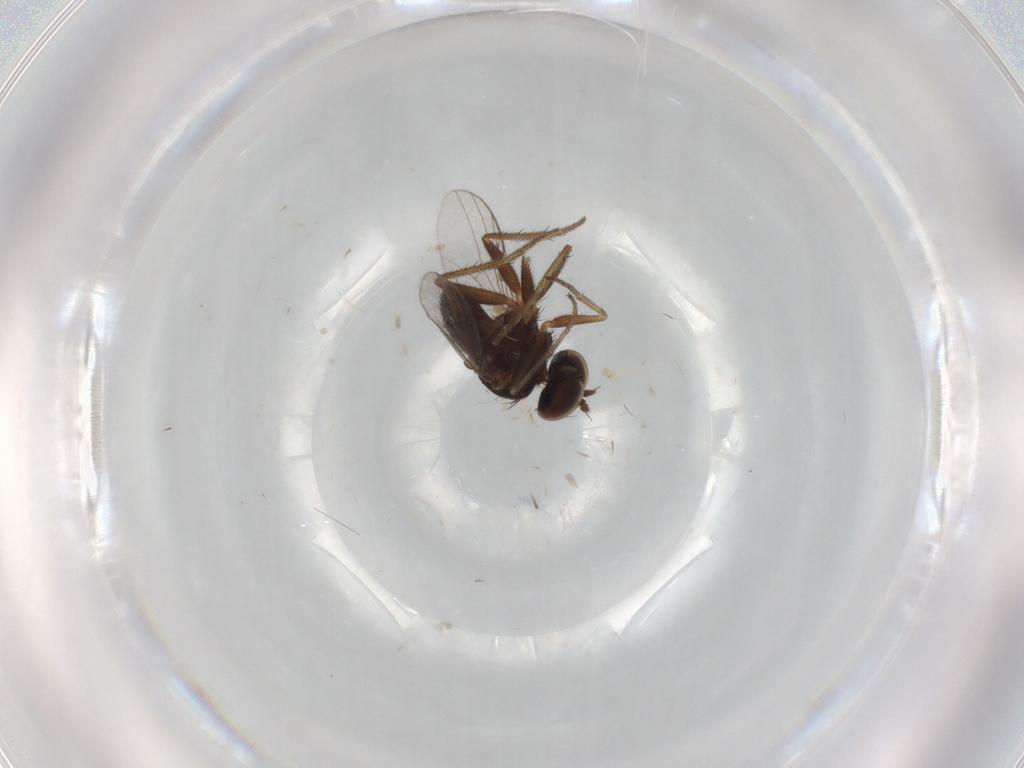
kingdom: Animalia
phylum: Arthropoda
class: Insecta
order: Diptera
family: Dolichopodidae
